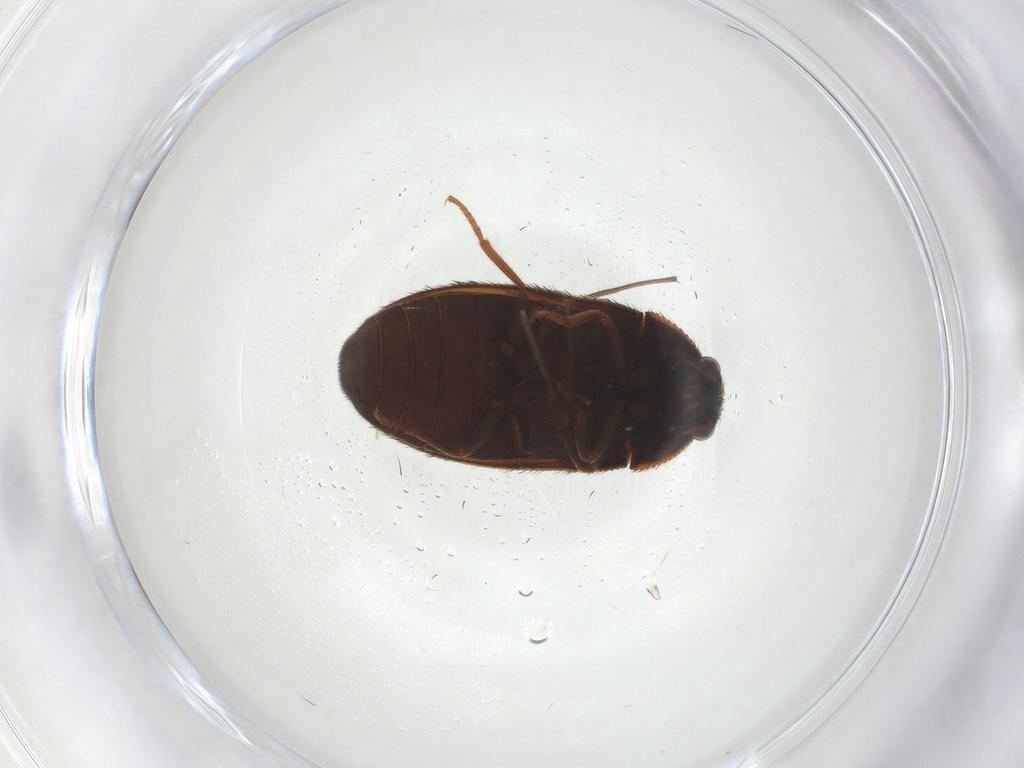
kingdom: Animalia
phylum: Arthropoda
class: Insecta
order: Coleoptera
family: Dermestidae
